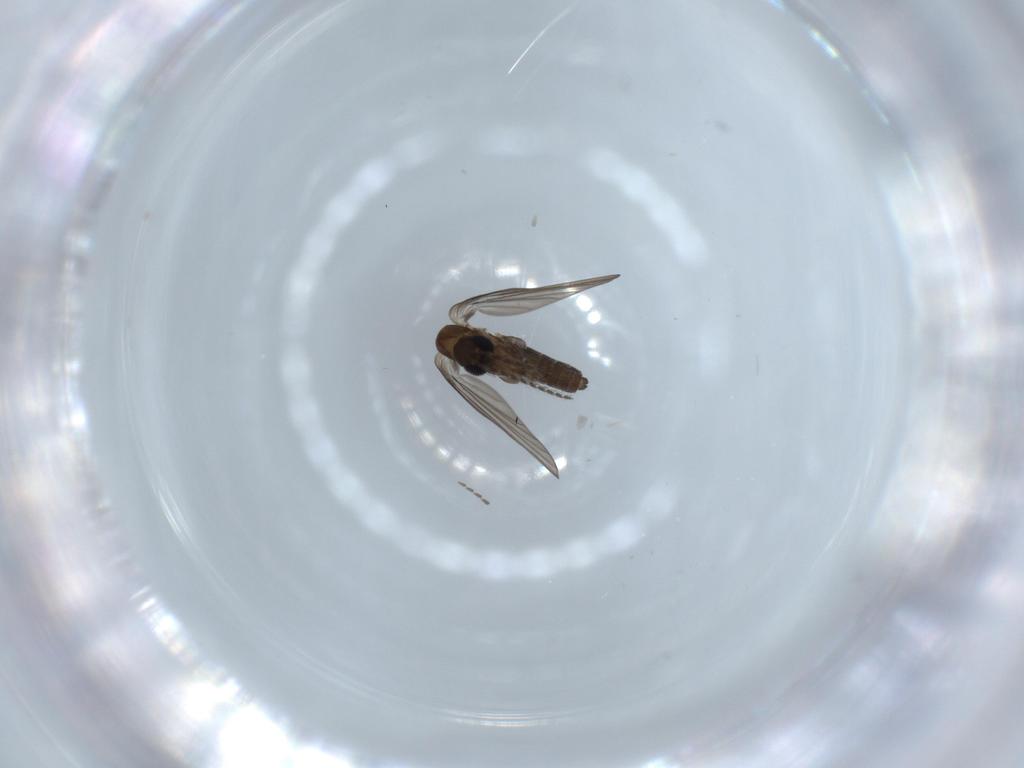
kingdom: Animalia
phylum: Arthropoda
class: Insecta
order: Diptera
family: Psychodidae
